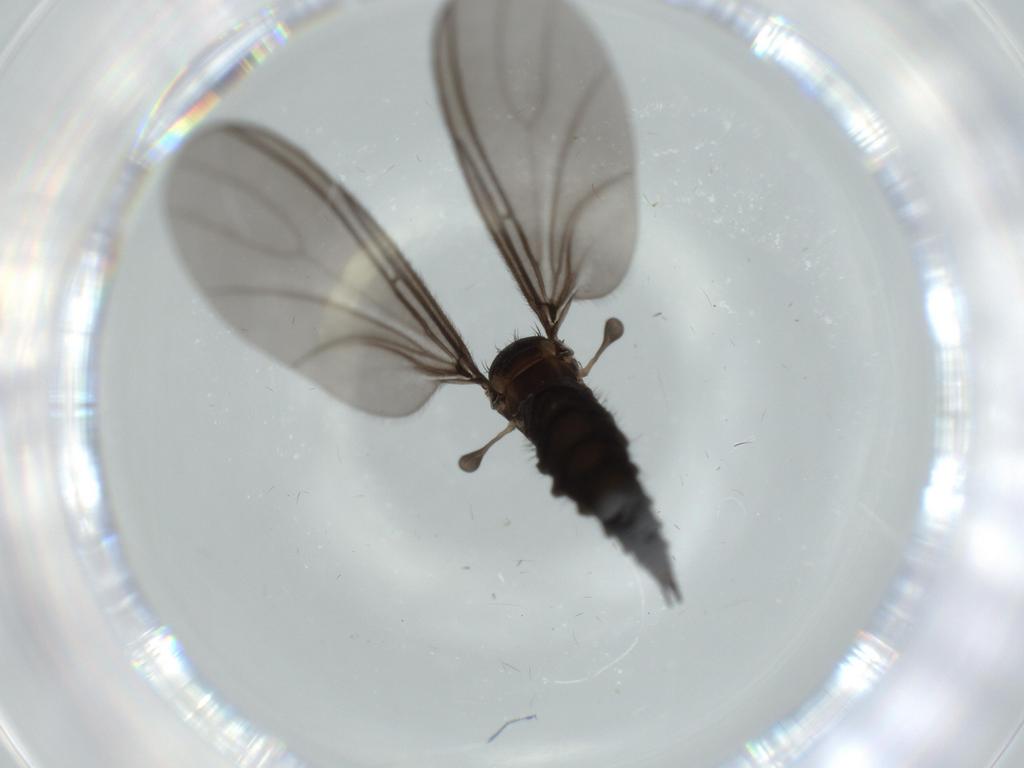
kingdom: Animalia
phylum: Arthropoda
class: Insecta
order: Diptera
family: Sciaridae
